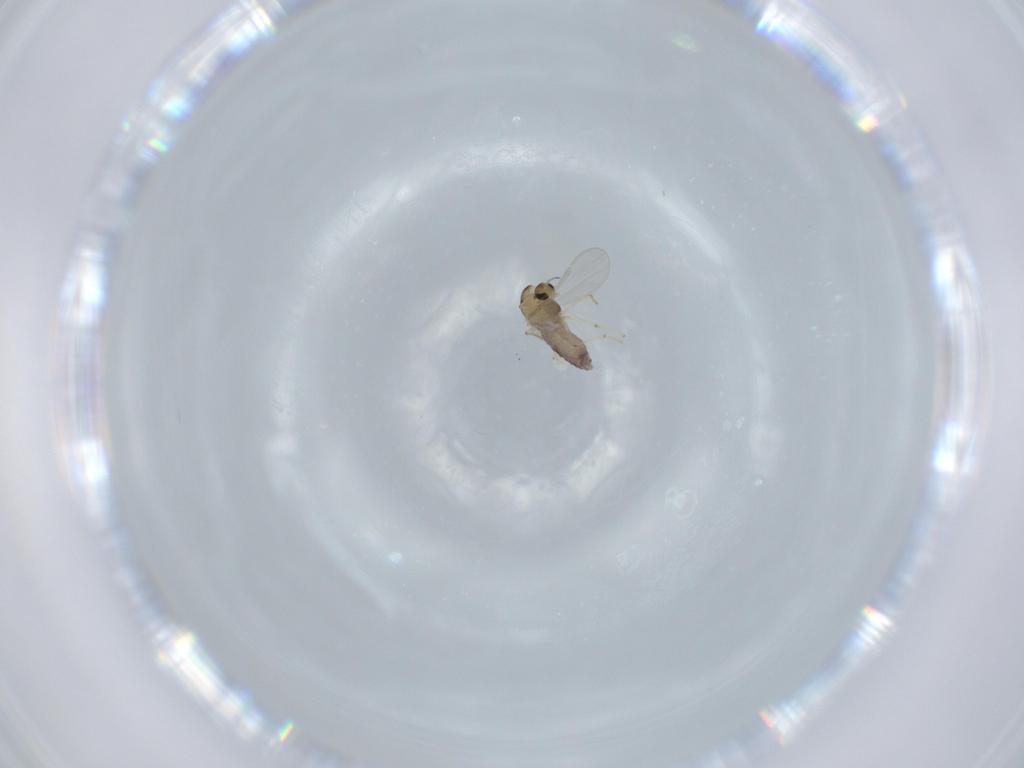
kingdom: Animalia
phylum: Arthropoda
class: Insecta
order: Diptera
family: Chironomidae
